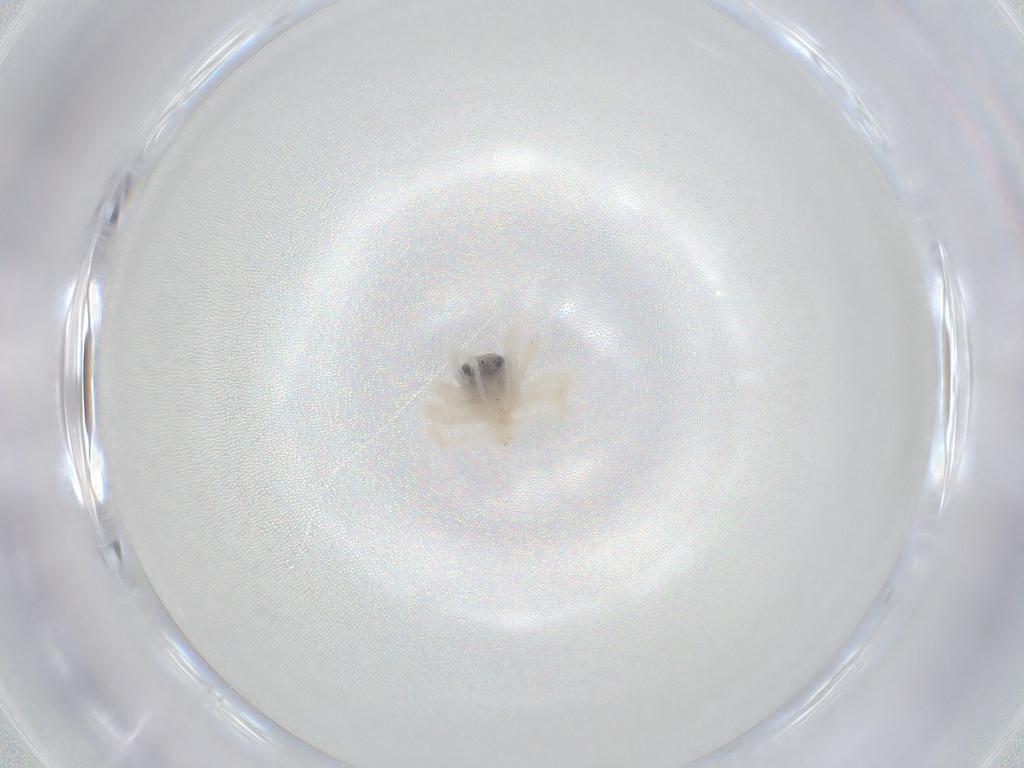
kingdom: Animalia
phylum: Arthropoda
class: Arachnida
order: Trombidiformes
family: Anystidae
